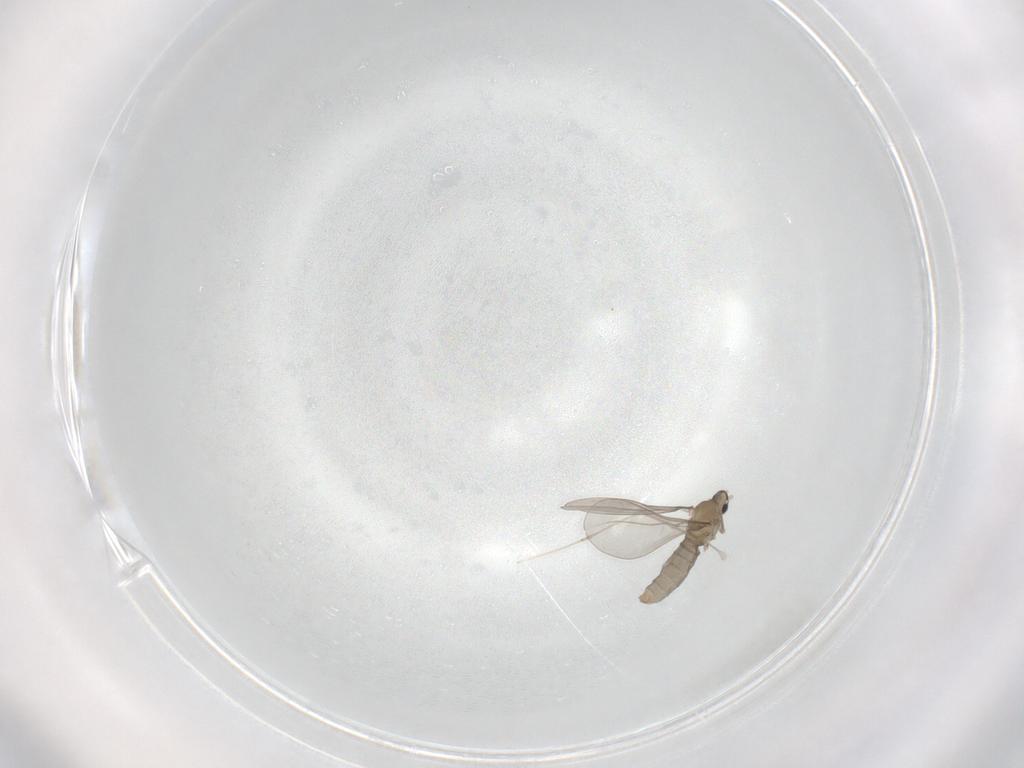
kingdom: Animalia
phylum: Arthropoda
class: Insecta
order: Diptera
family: Cecidomyiidae
